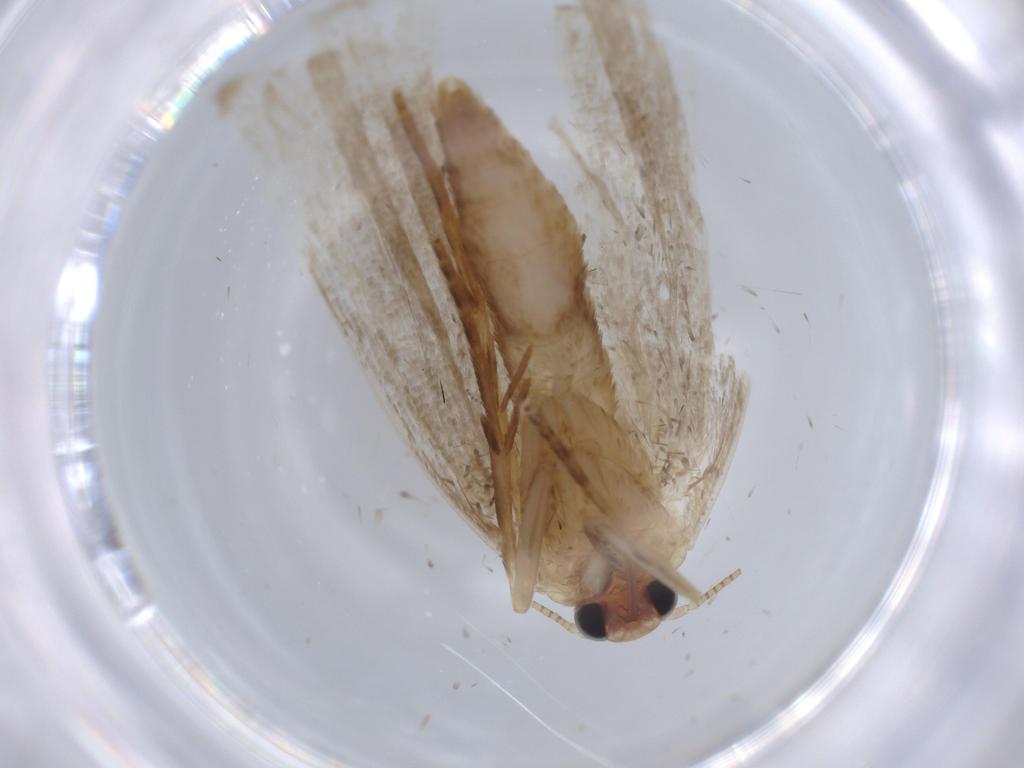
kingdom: Animalia
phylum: Arthropoda
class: Insecta
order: Lepidoptera
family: Erebidae
